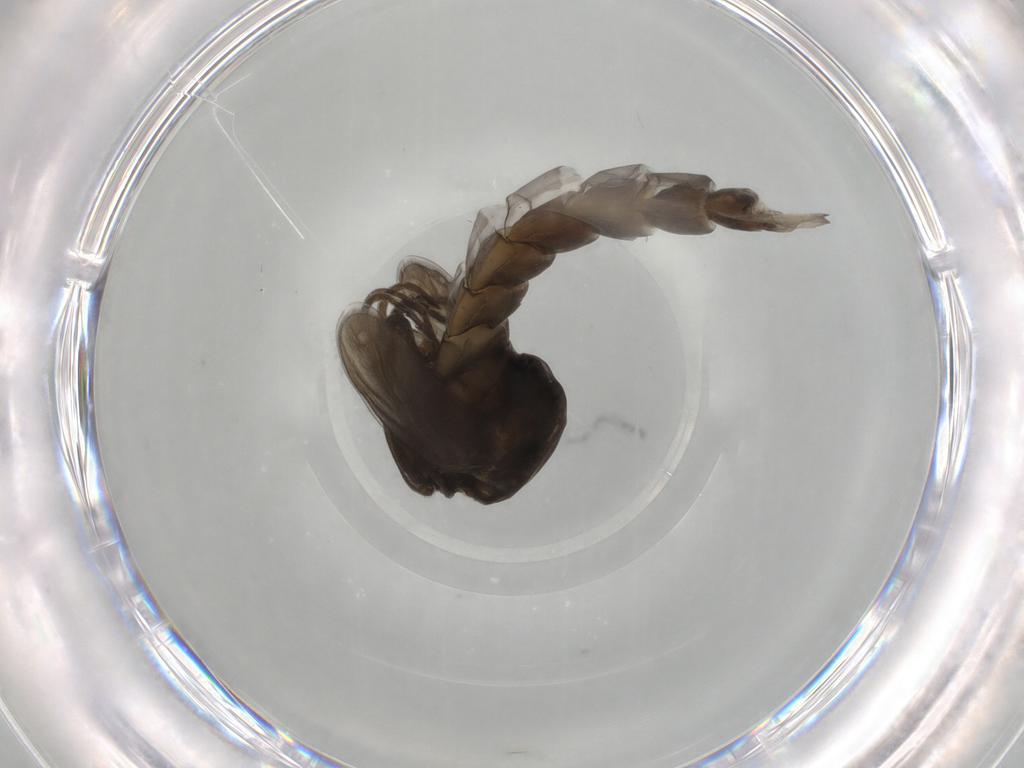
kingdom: Animalia
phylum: Arthropoda
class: Insecta
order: Diptera
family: Chironomidae
